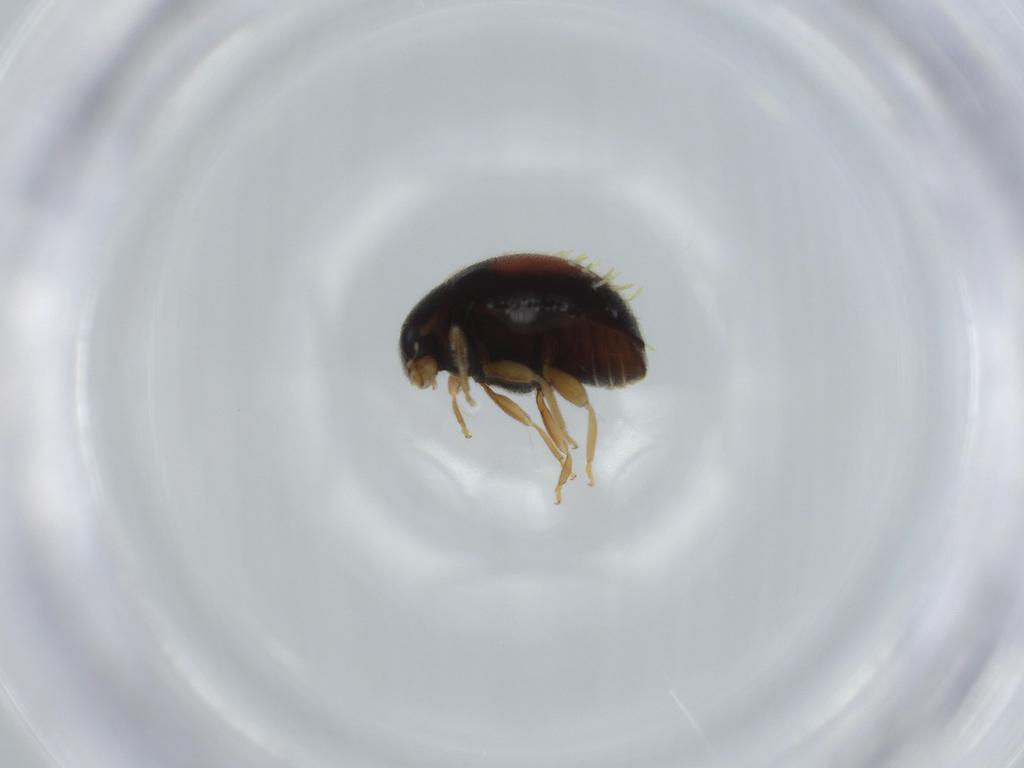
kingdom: Animalia
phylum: Arthropoda
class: Insecta
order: Coleoptera
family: Coccinellidae
